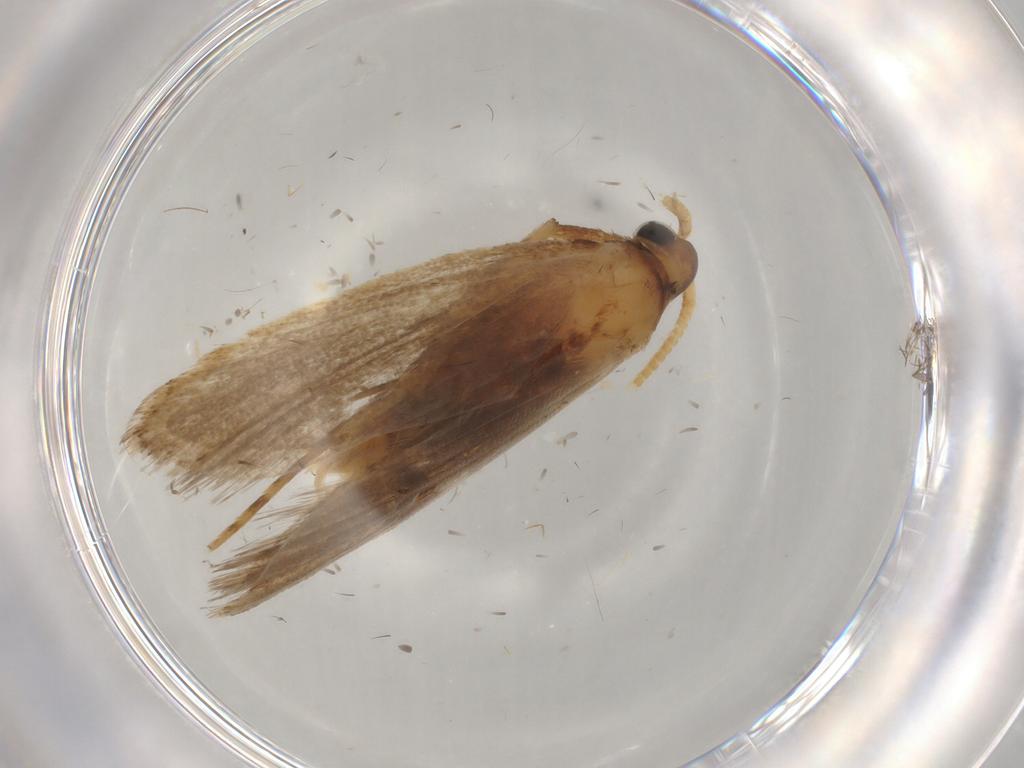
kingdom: Animalia
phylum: Arthropoda
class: Insecta
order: Lepidoptera
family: Lecithoceridae
